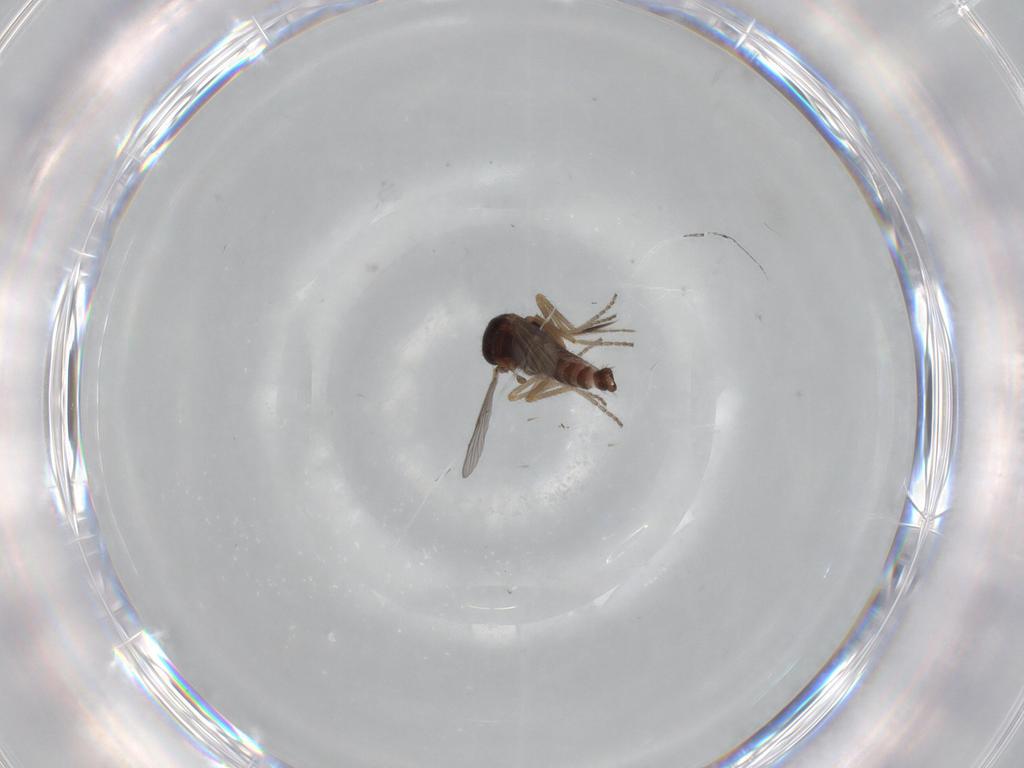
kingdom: Animalia
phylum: Arthropoda
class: Insecta
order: Diptera
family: Ceratopogonidae
